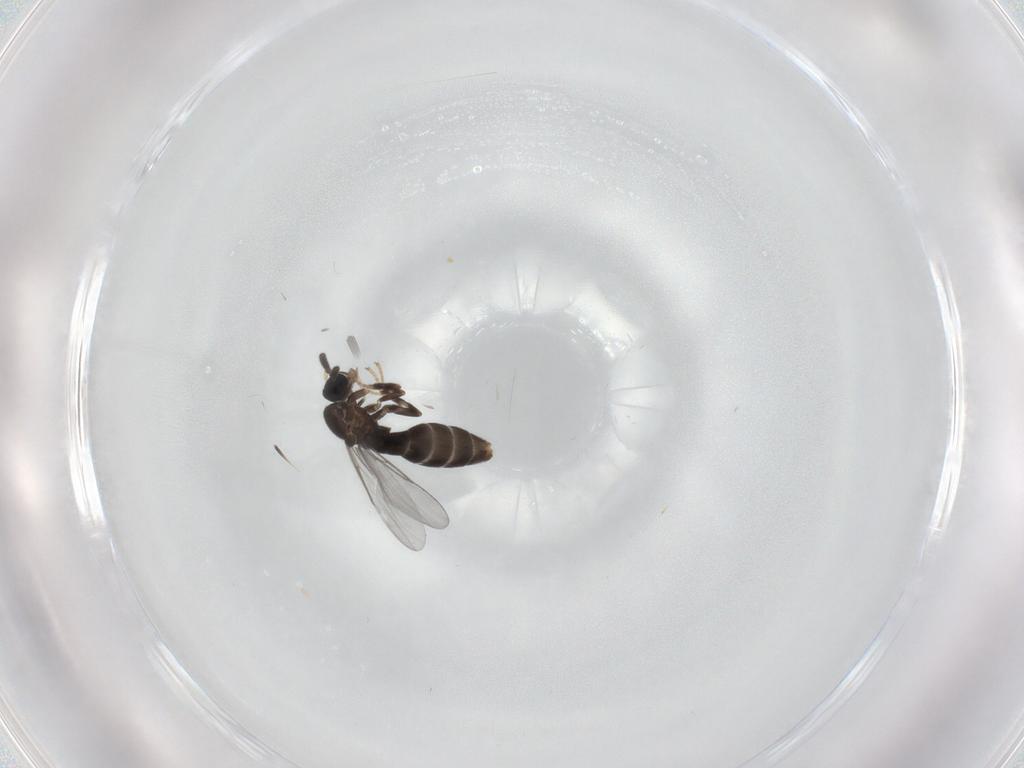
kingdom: Animalia
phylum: Arthropoda
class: Insecta
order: Diptera
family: Scatopsidae
